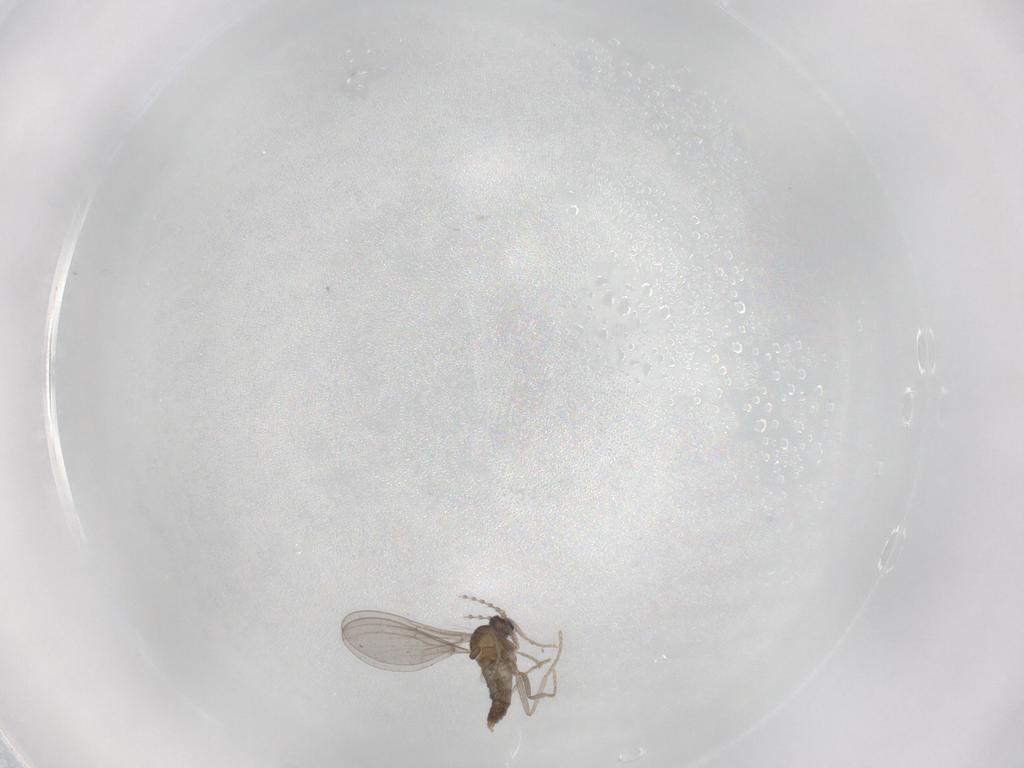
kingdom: Animalia
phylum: Arthropoda
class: Insecta
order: Diptera
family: Cecidomyiidae
